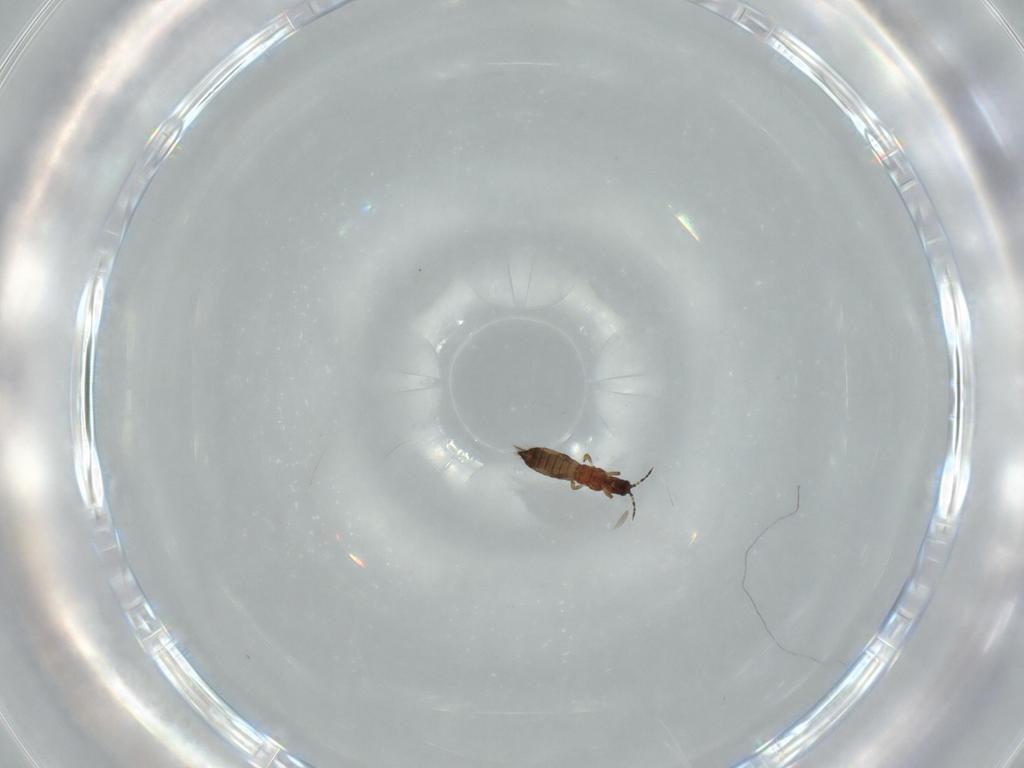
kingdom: Animalia
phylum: Arthropoda
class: Insecta
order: Thysanoptera
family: Thripidae
